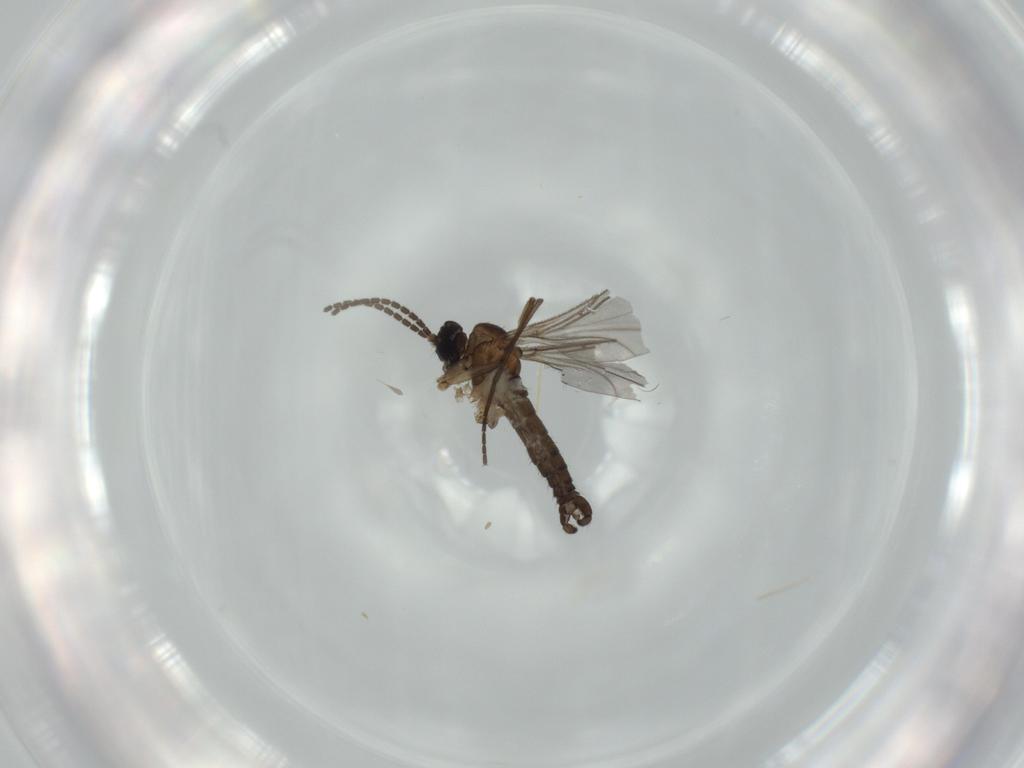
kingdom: Animalia
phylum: Arthropoda
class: Insecta
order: Diptera
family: Sciaridae
